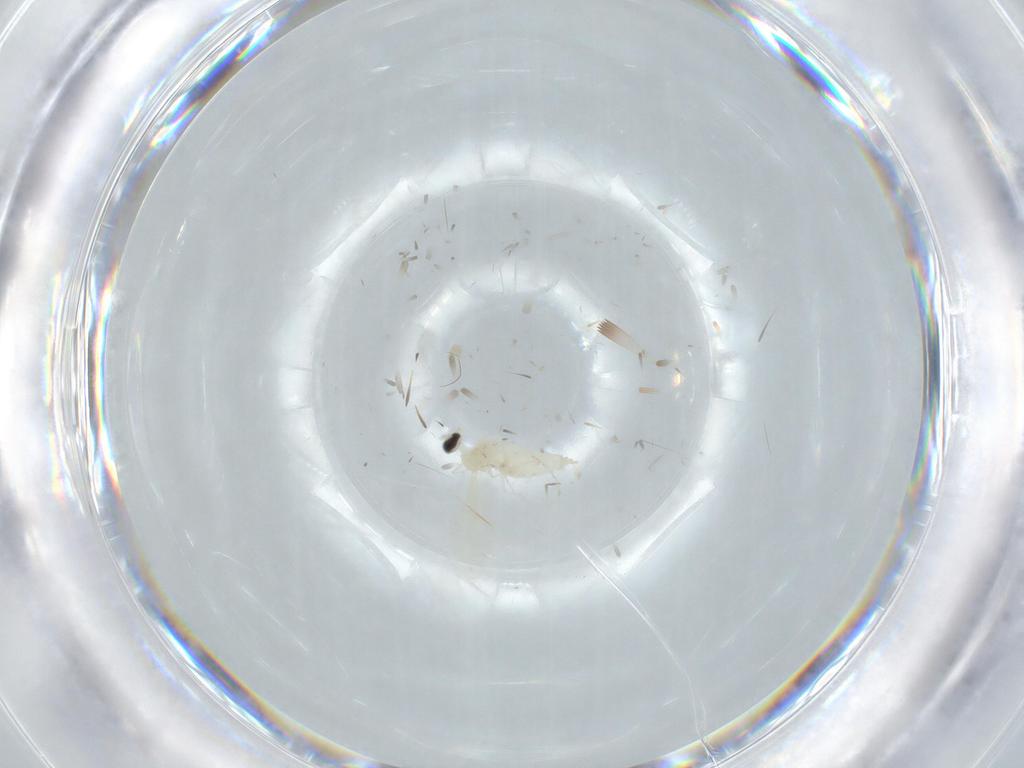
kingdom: Animalia
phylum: Arthropoda
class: Insecta
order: Diptera
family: Cecidomyiidae
